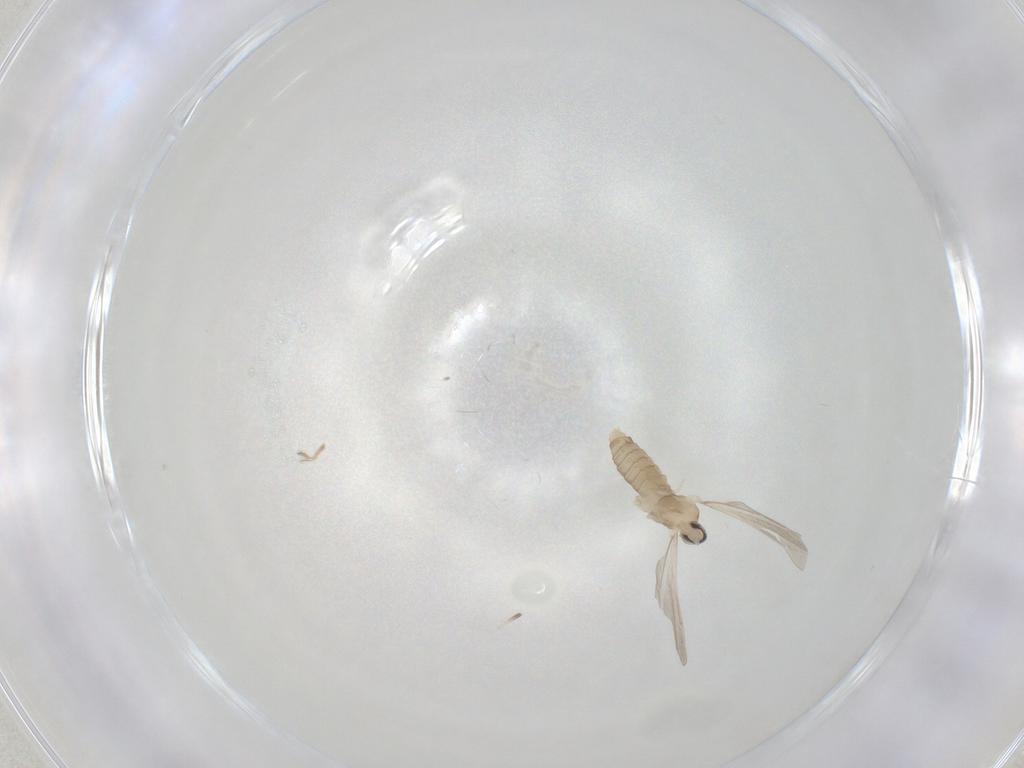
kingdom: Animalia
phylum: Arthropoda
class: Insecta
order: Diptera
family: Cecidomyiidae
